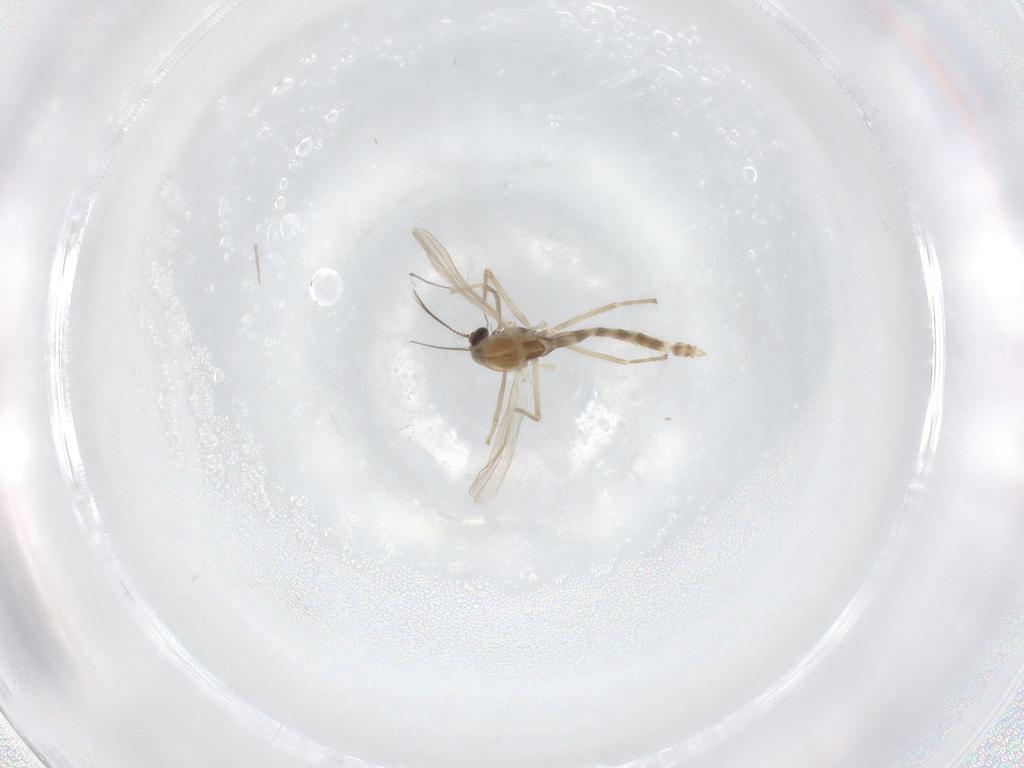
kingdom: Animalia
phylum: Arthropoda
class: Insecta
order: Diptera
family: Chironomidae
